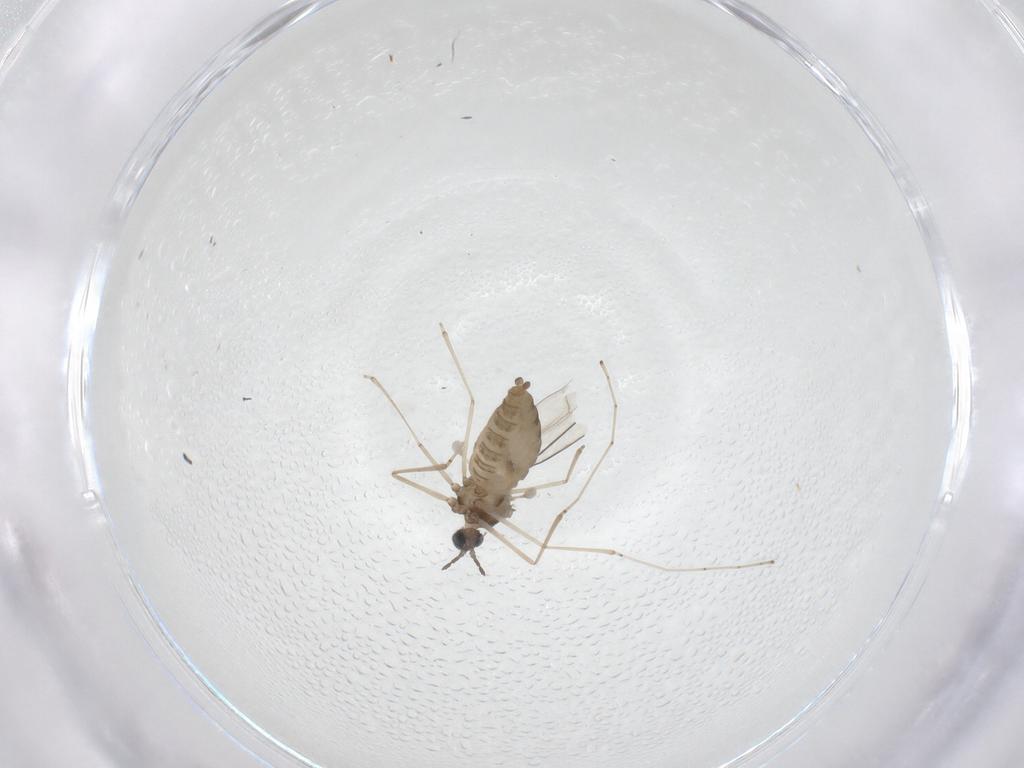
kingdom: Animalia
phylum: Arthropoda
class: Insecta
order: Diptera
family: Cecidomyiidae
